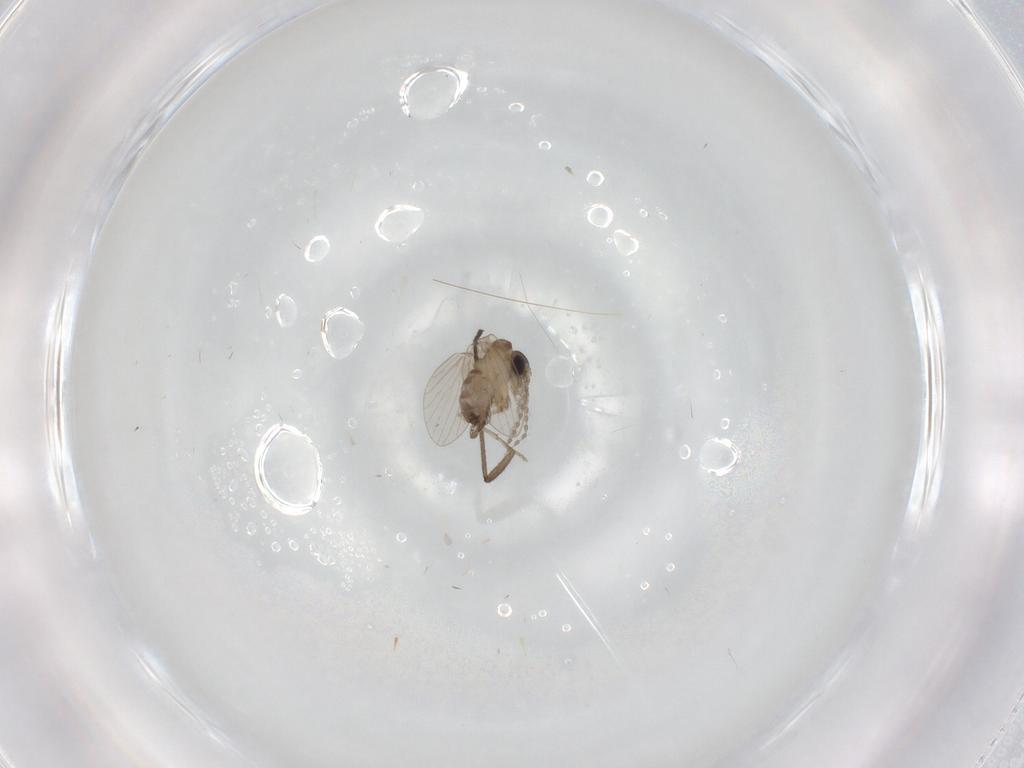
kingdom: Animalia
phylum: Arthropoda
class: Insecta
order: Diptera
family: Sciaridae
